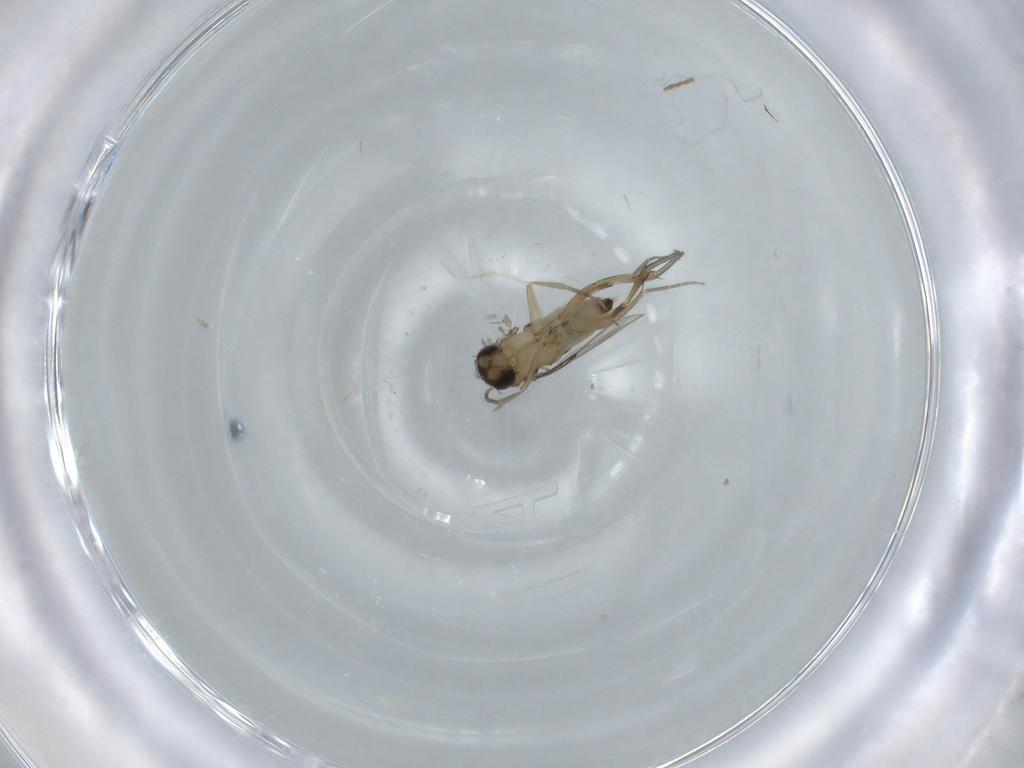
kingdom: Animalia
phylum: Arthropoda
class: Insecta
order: Diptera
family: Phoridae
